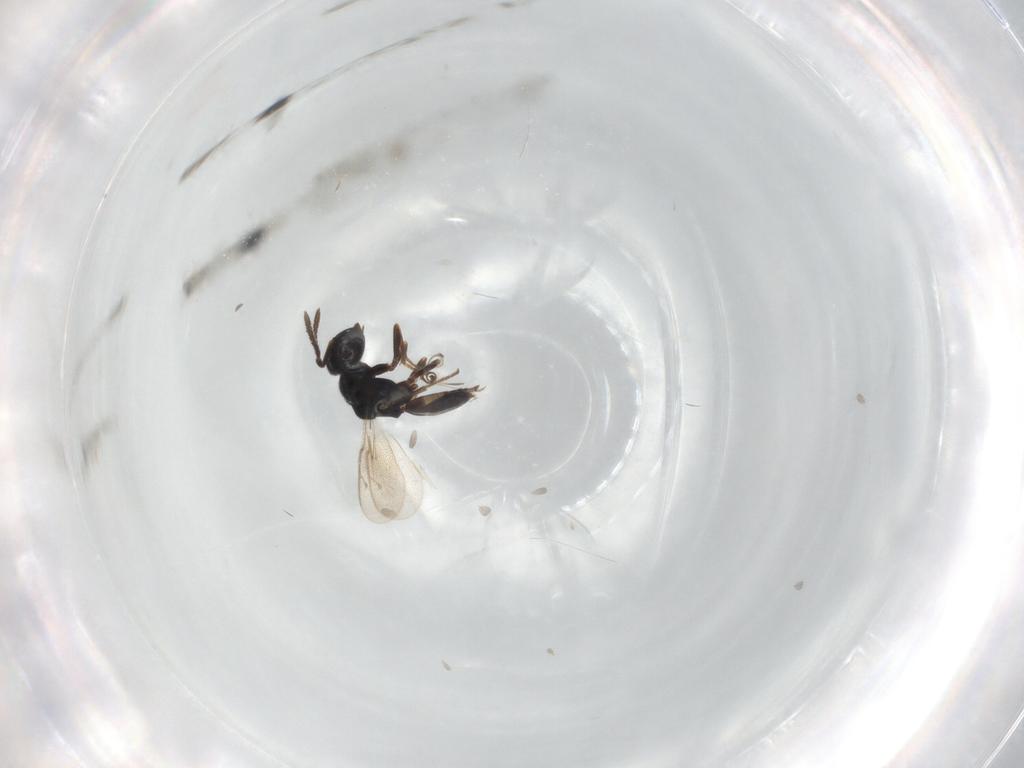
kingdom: Animalia
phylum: Arthropoda
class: Insecta
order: Hymenoptera
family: Pteromalidae
